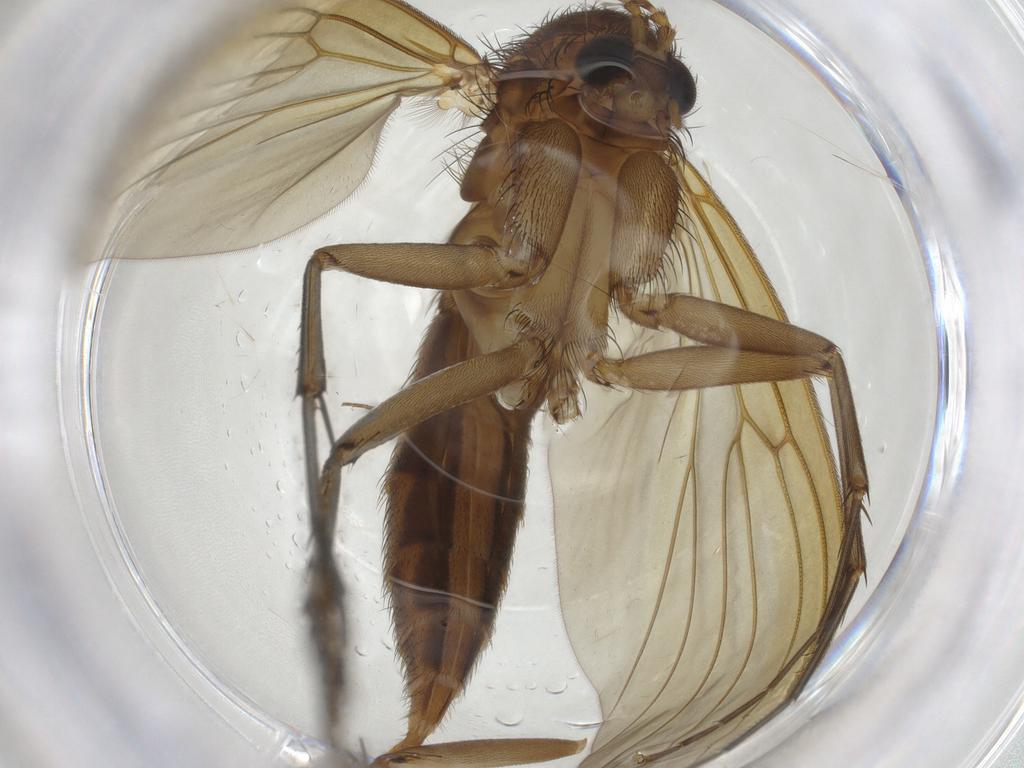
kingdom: Animalia
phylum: Arthropoda
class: Insecta
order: Diptera
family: Mycetophilidae
